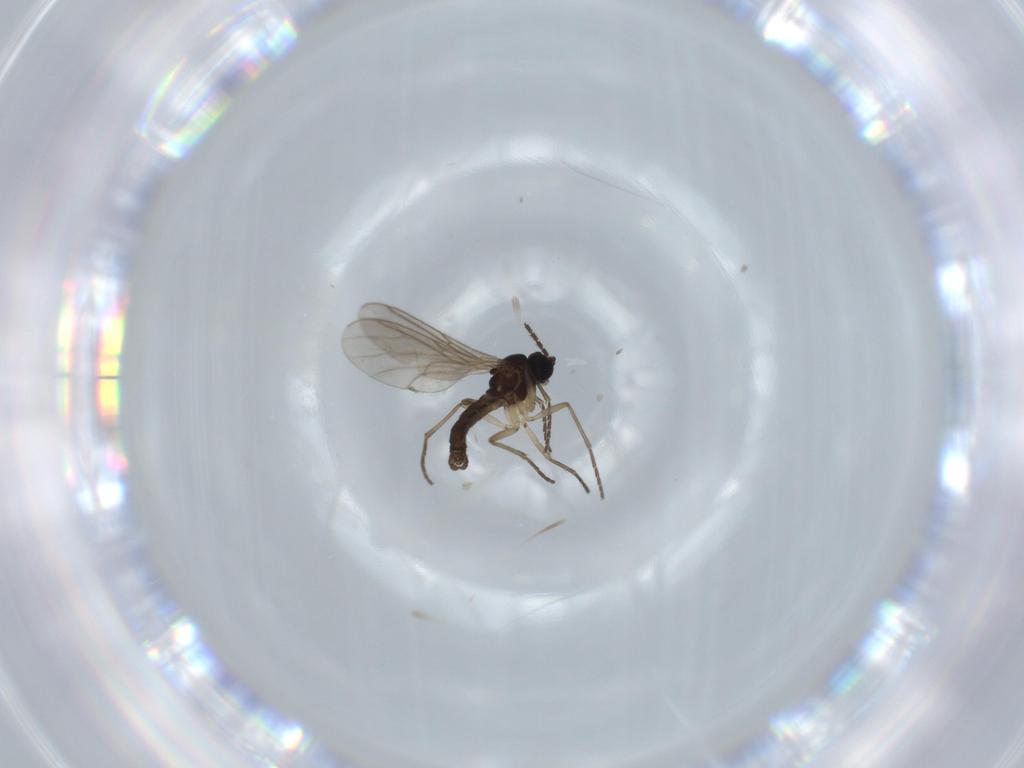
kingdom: Animalia
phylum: Arthropoda
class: Insecta
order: Diptera
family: Sciaridae
